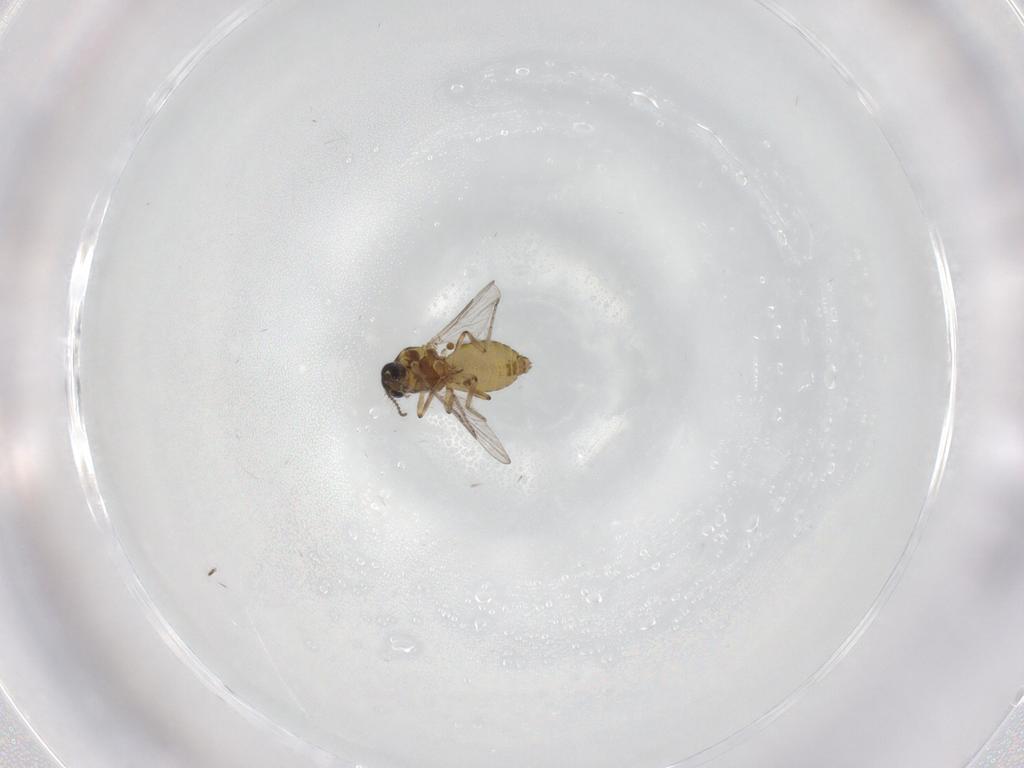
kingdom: Animalia
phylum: Arthropoda
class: Insecta
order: Diptera
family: Ceratopogonidae
